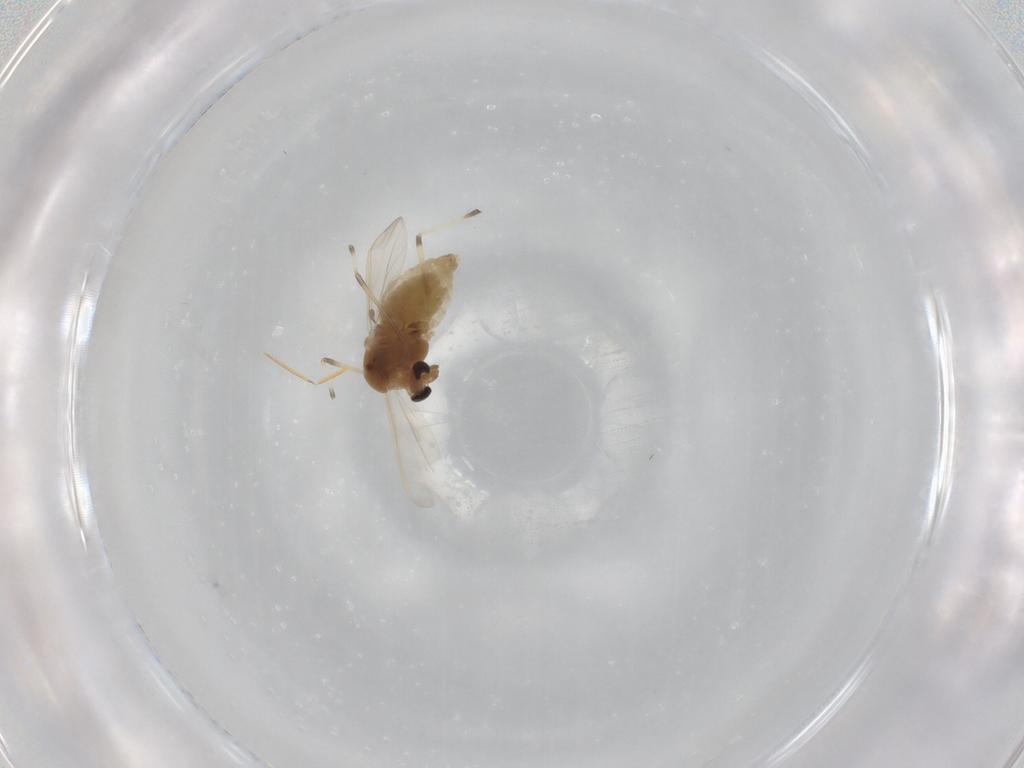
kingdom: Animalia
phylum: Arthropoda
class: Insecta
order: Diptera
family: Chironomidae
